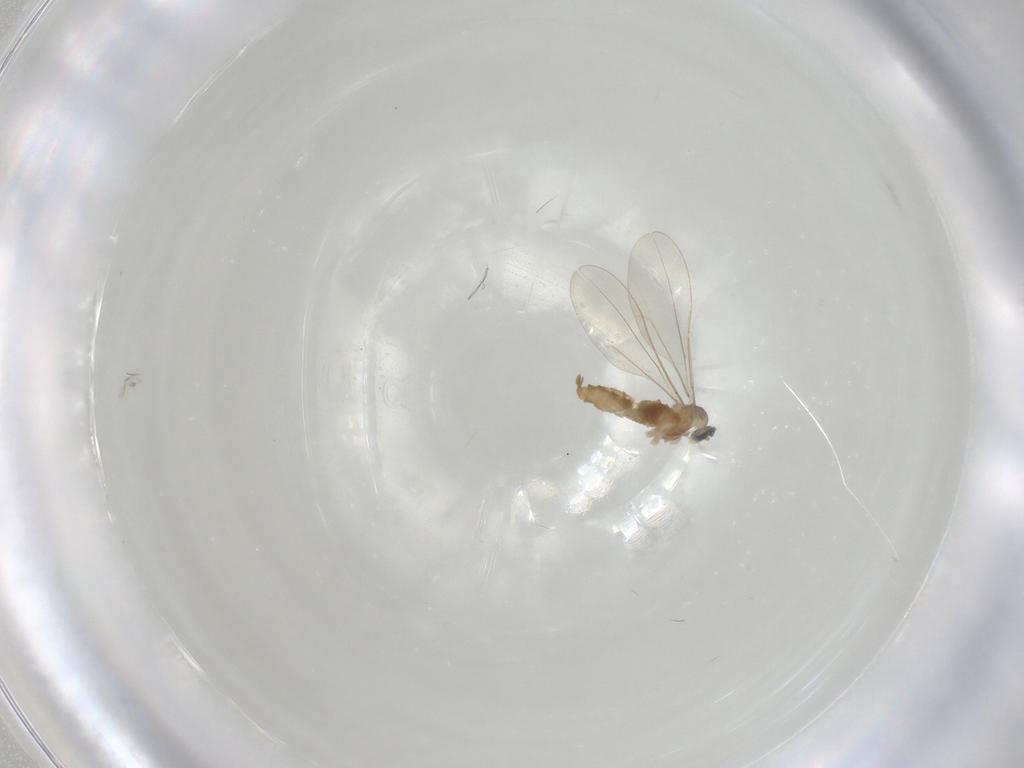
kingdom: Animalia
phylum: Arthropoda
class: Insecta
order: Diptera
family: Cecidomyiidae
